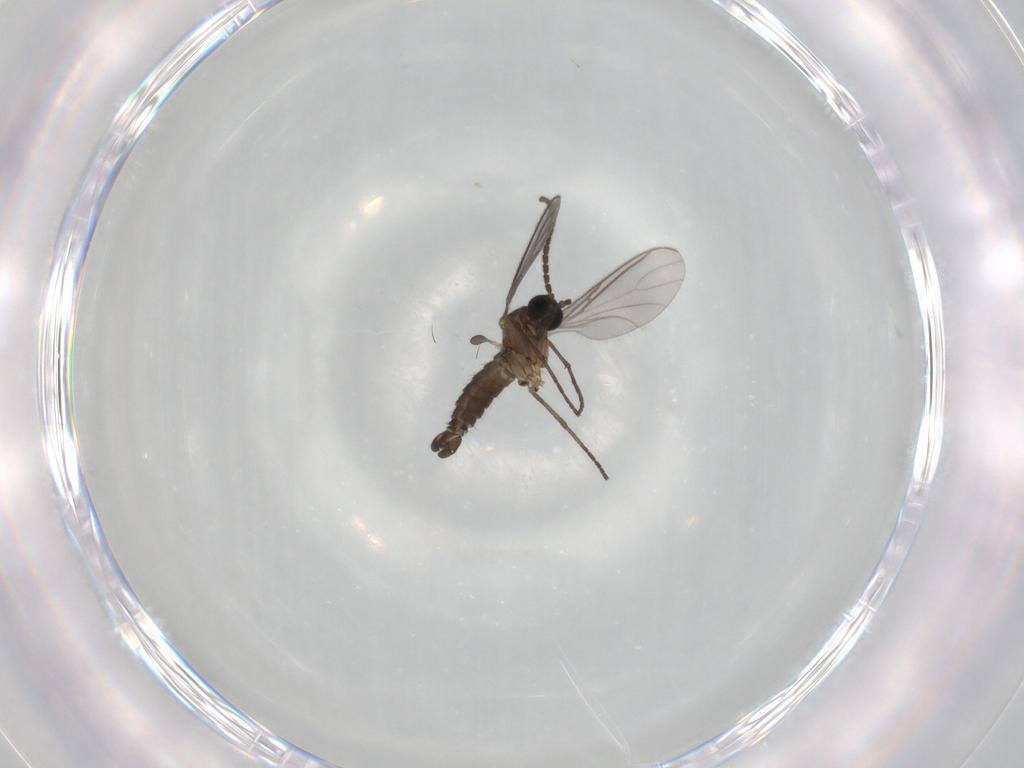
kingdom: Animalia
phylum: Arthropoda
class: Insecta
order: Diptera
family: Sciaridae
